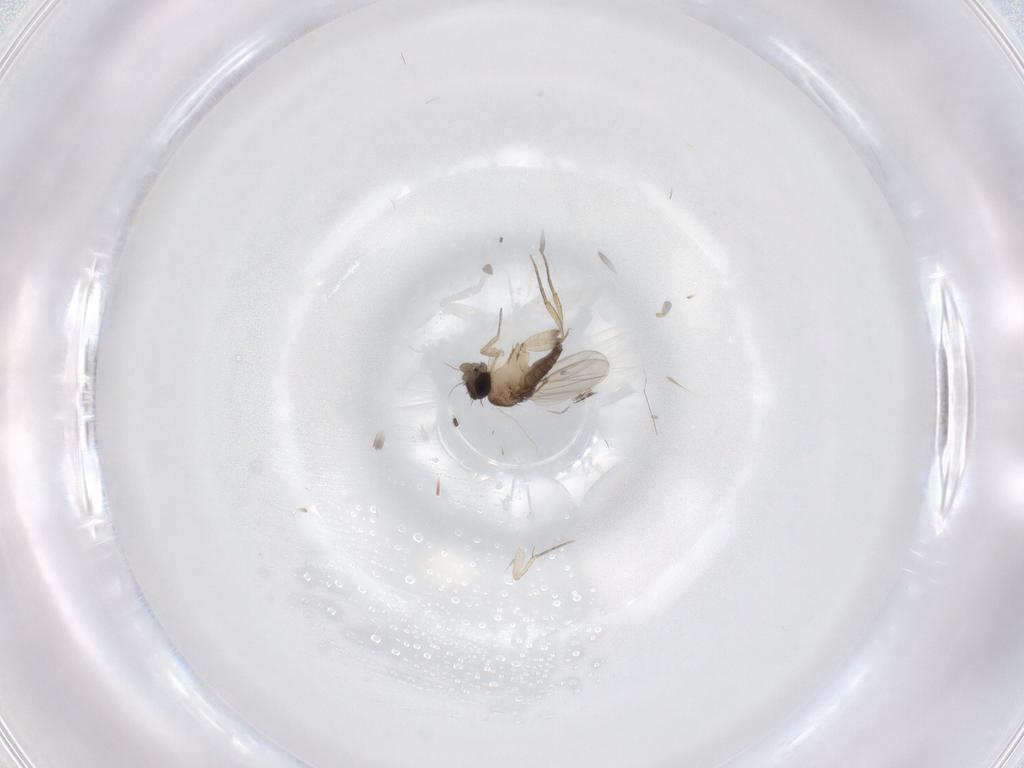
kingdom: Animalia
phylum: Arthropoda
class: Insecta
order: Diptera
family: Phoridae
